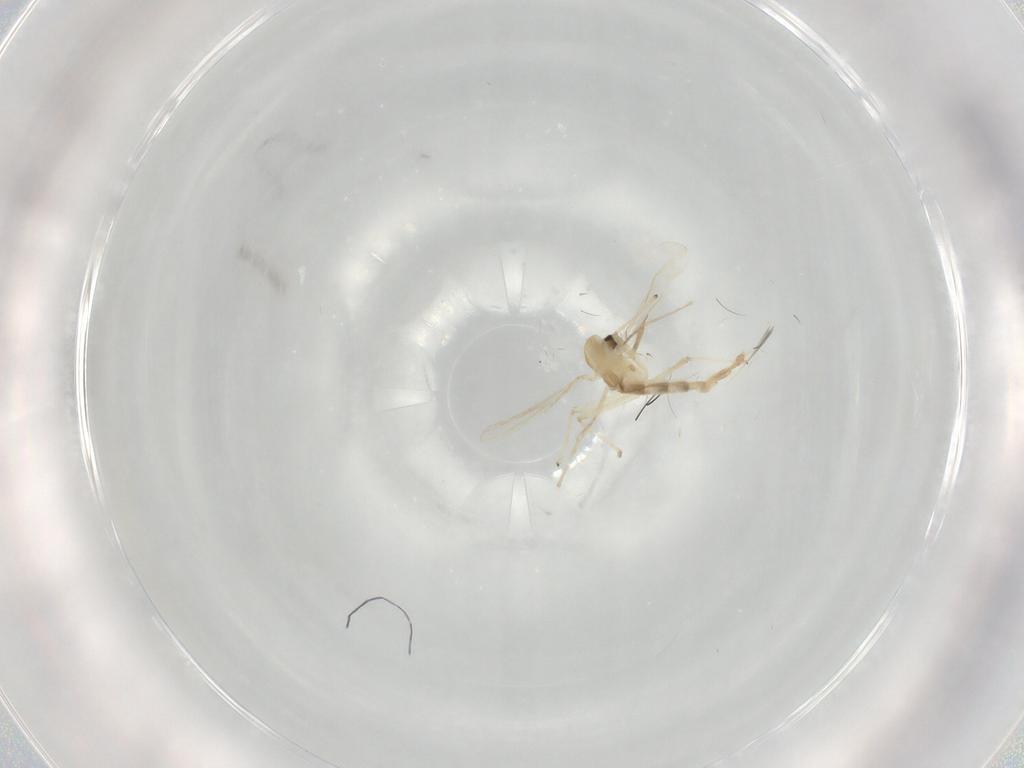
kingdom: Animalia
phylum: Arthropoda
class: Insecta
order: Diptera
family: Chironomidae
